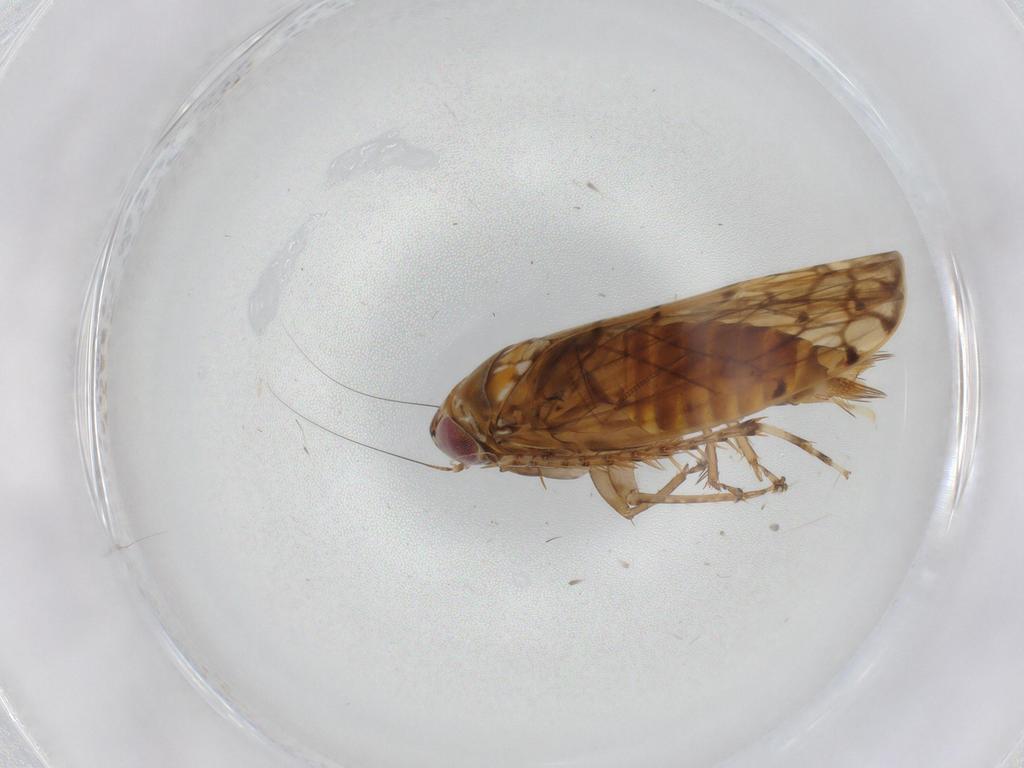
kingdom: Animalia
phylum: Arthropoda
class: Insecta
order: Hemiptera
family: Cicadellidae
